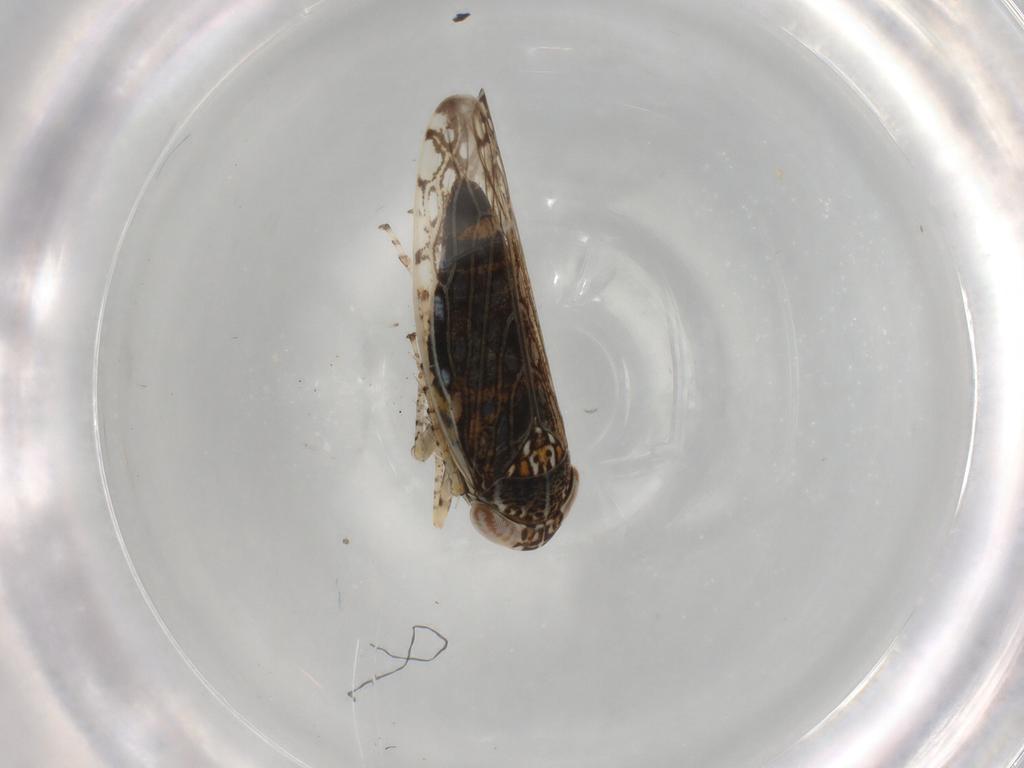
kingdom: Animalia
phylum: Arthropoda
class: Insecta
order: Hemiptera
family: Cicadellidae
